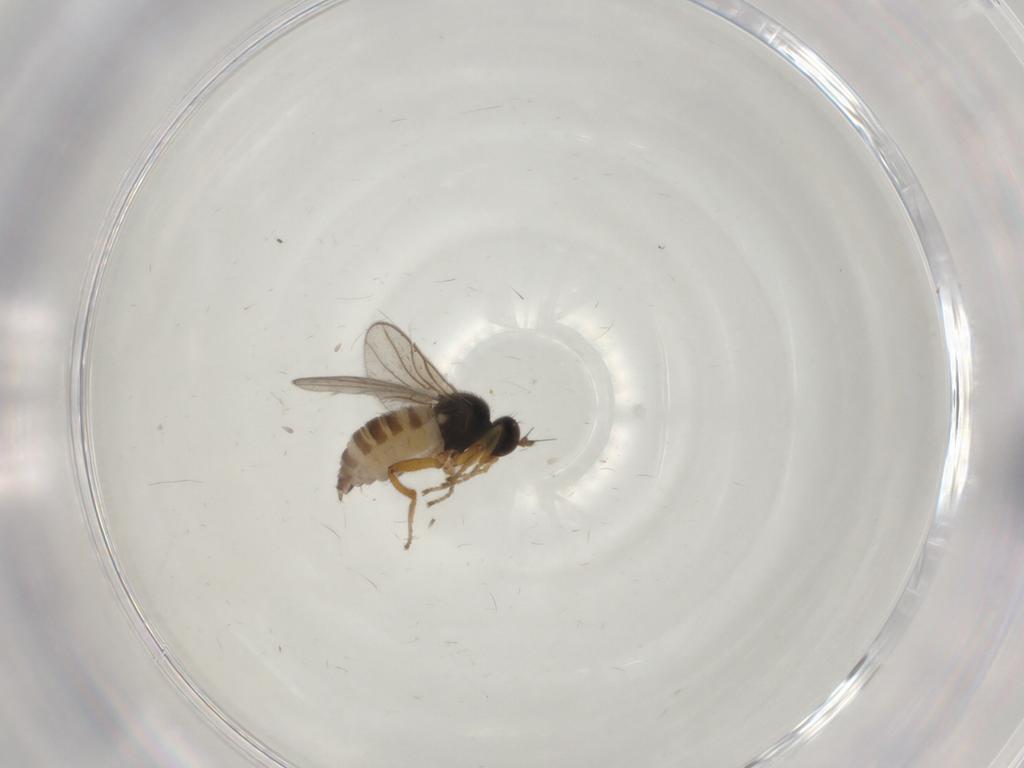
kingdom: Animalia
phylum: Arthropoda
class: Insecta
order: Diptera
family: Hybotidae
